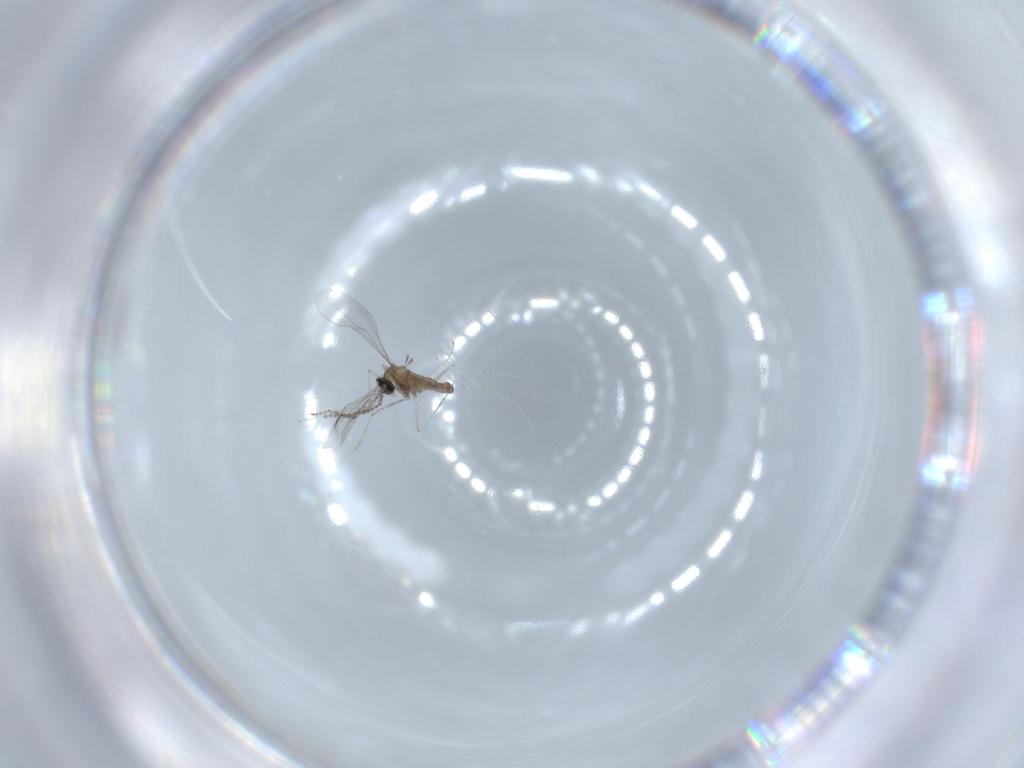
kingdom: Animalia
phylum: Arthropoda
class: Insecta
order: Diptera
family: Cecidomyiidae
